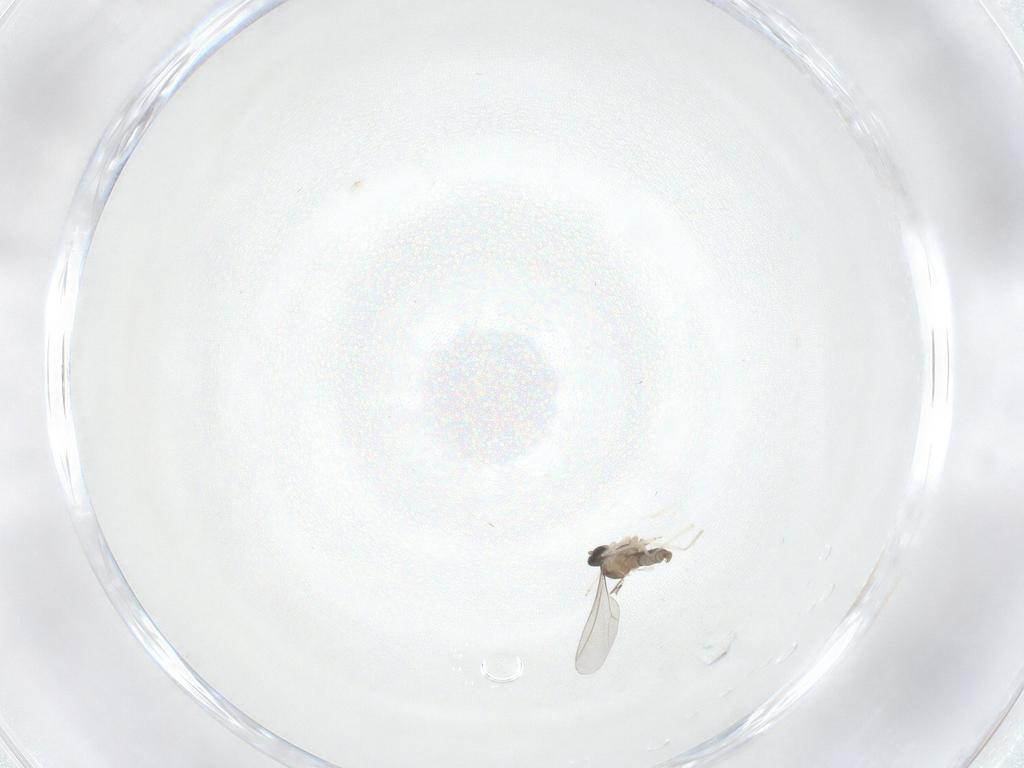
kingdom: Animalia
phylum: Arthropoda
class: Insecta
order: Diptera
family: Cecidomyiidae
